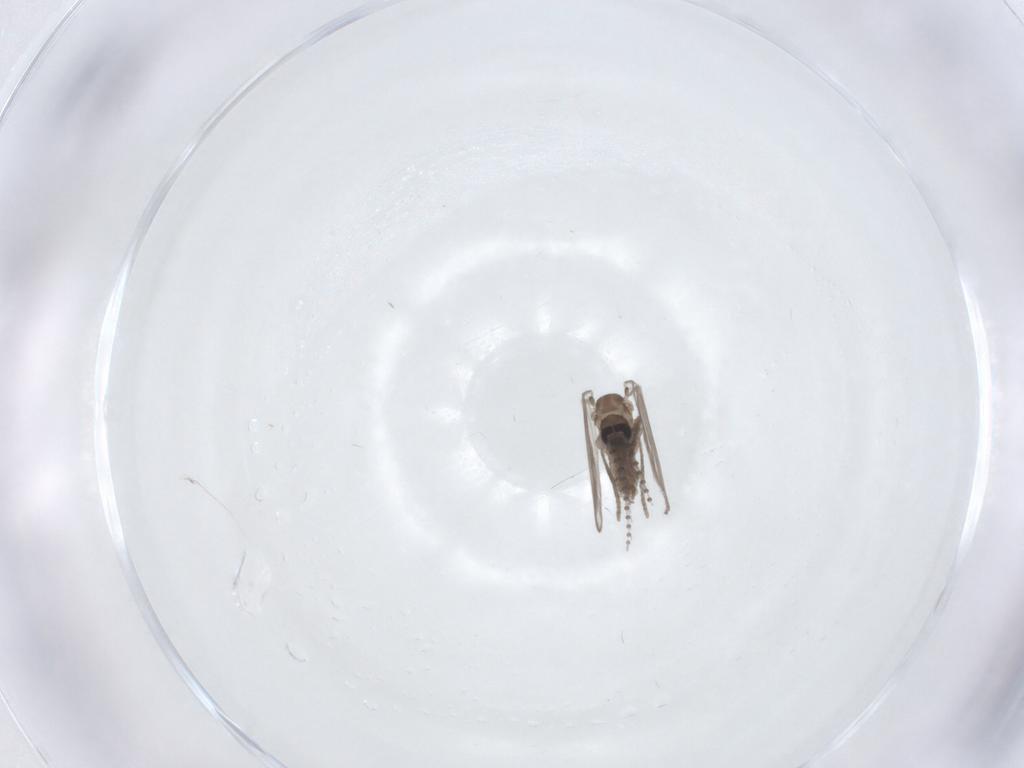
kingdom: Animalia
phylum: Arthropoda
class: Insecta
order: Diptera
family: Psychodidae
